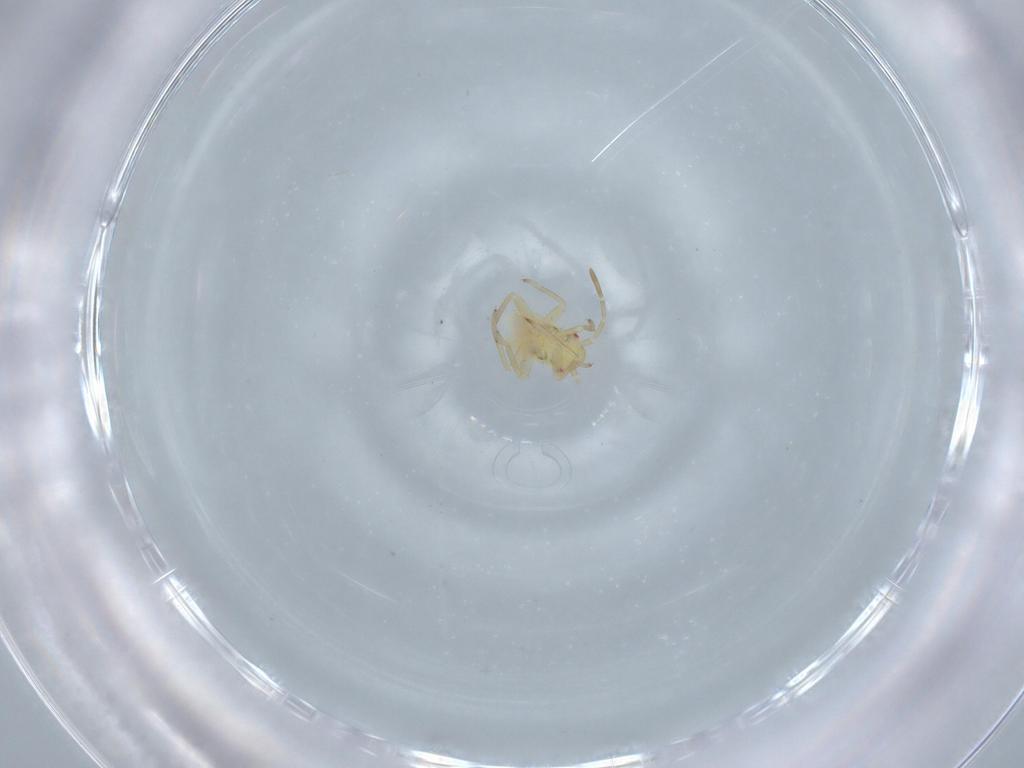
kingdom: Animalia
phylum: Arthropoda
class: Insecta
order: Hemiptera
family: Miridae
